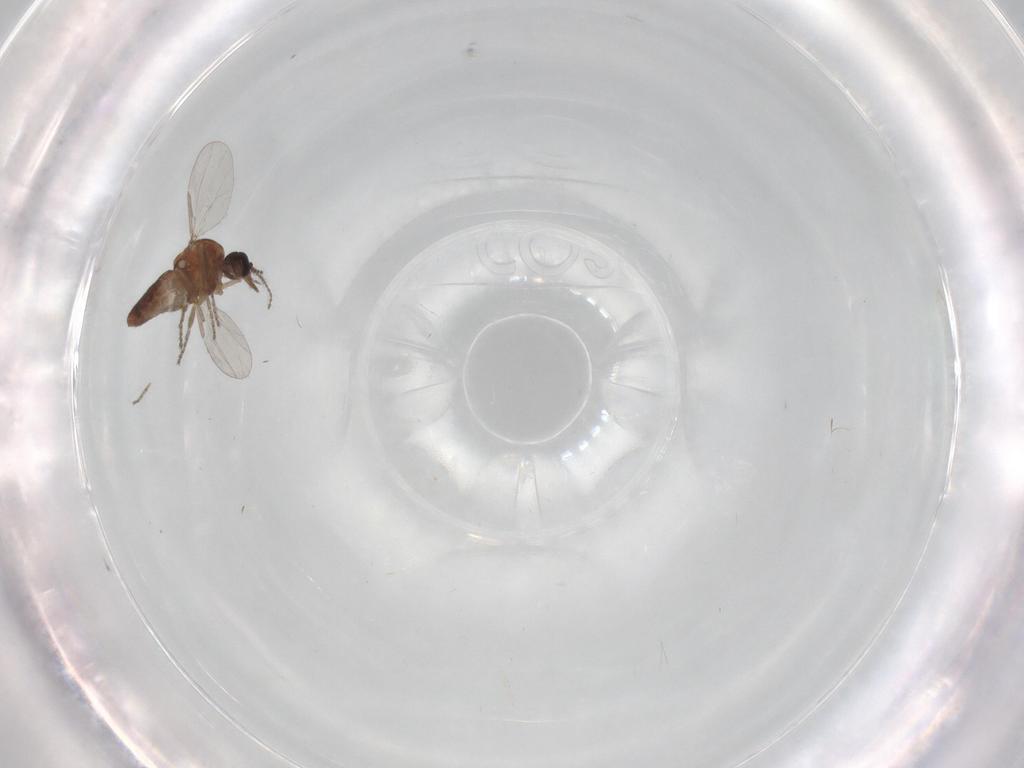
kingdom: Animalia
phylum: Arthropoda
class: Insecta
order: Diptera
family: Cecidomyiidae
